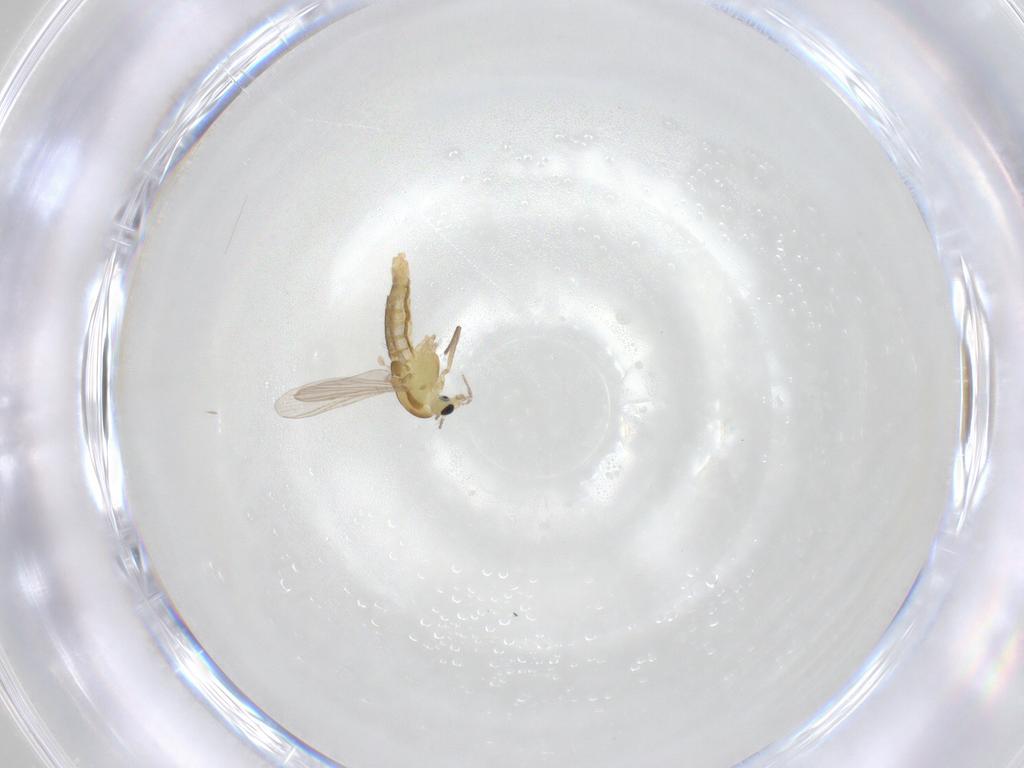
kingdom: Animalia
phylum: Arthropoda
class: Insecta
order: Diptera
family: Chironomidae
